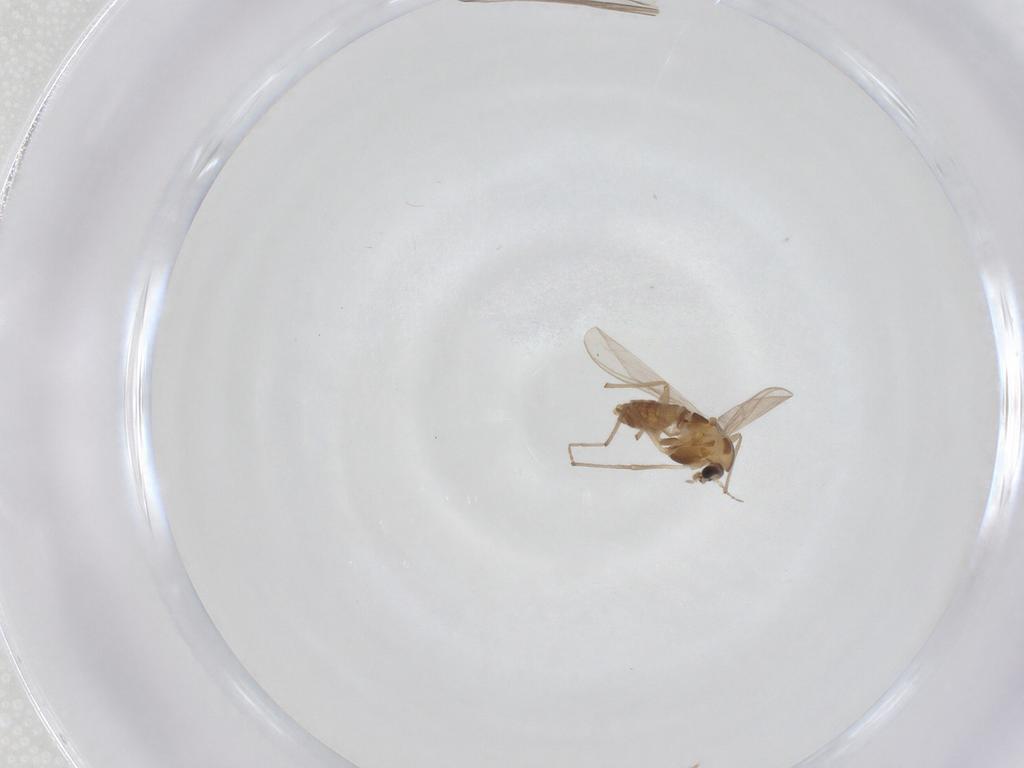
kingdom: Animalia
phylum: Arthropoda
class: Insecta
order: Diptera
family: Chironomidae
